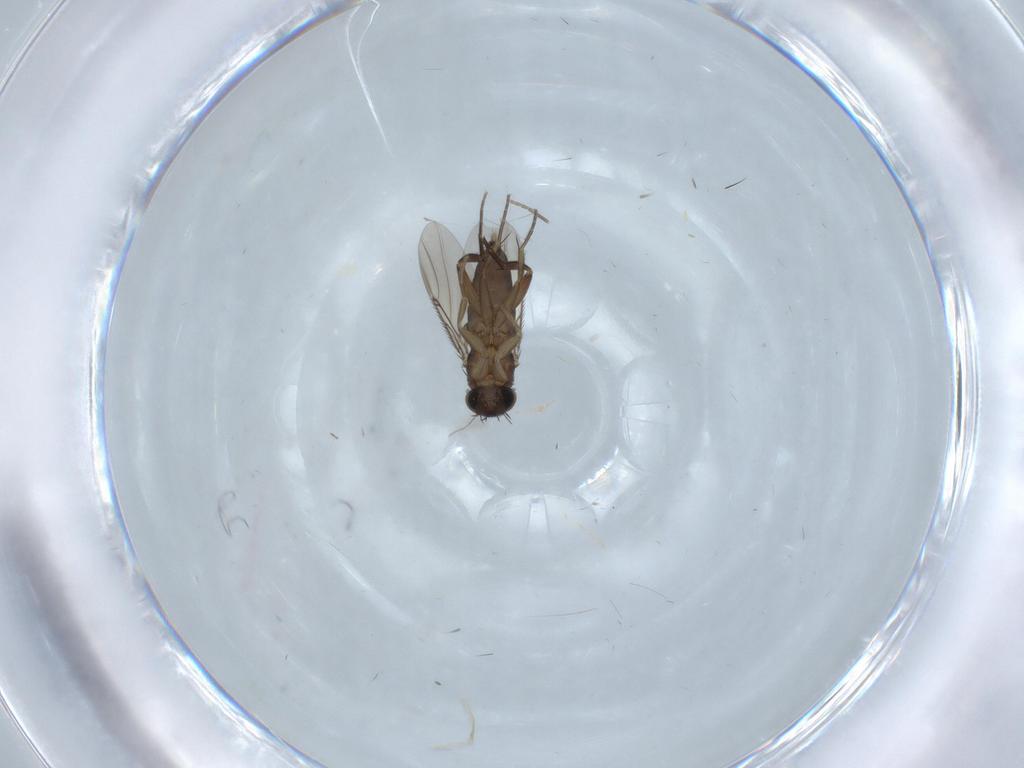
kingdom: Animalia
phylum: Arthropoda
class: Insecta
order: Diptera
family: Phoridae
